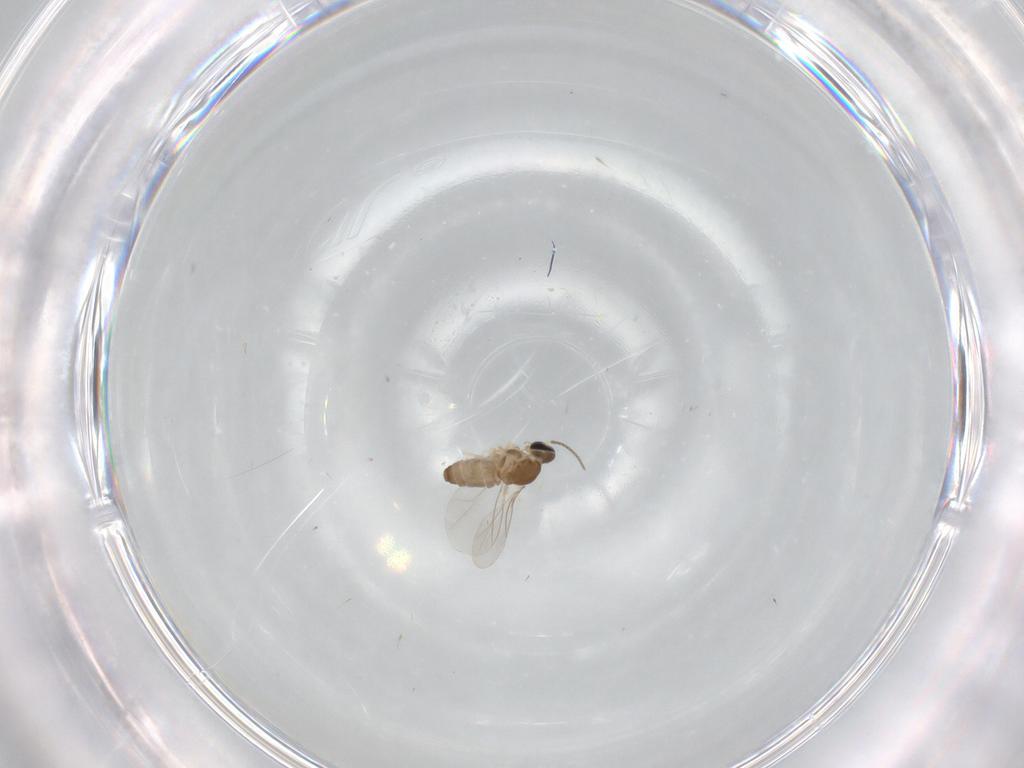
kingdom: Animalia
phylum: Arthropoda
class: Insecta
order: Diptera
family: Cecidomyiidae
